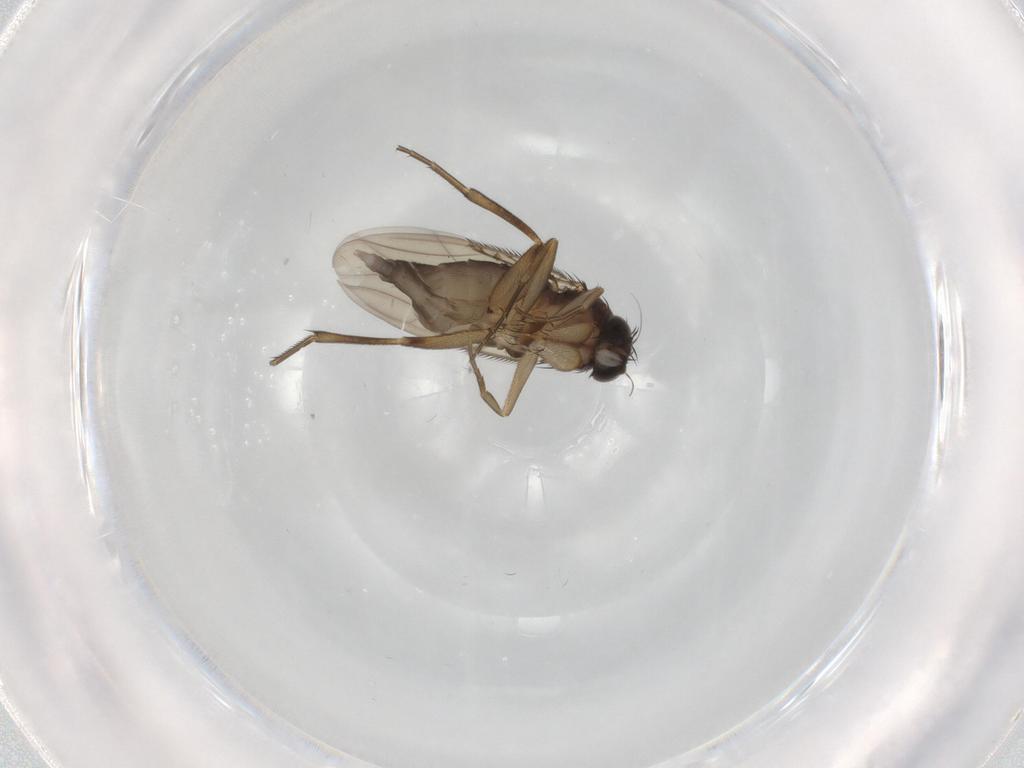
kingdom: Animalia
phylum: Arthropoda
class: Insecta
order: Diptera
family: Phoridae
